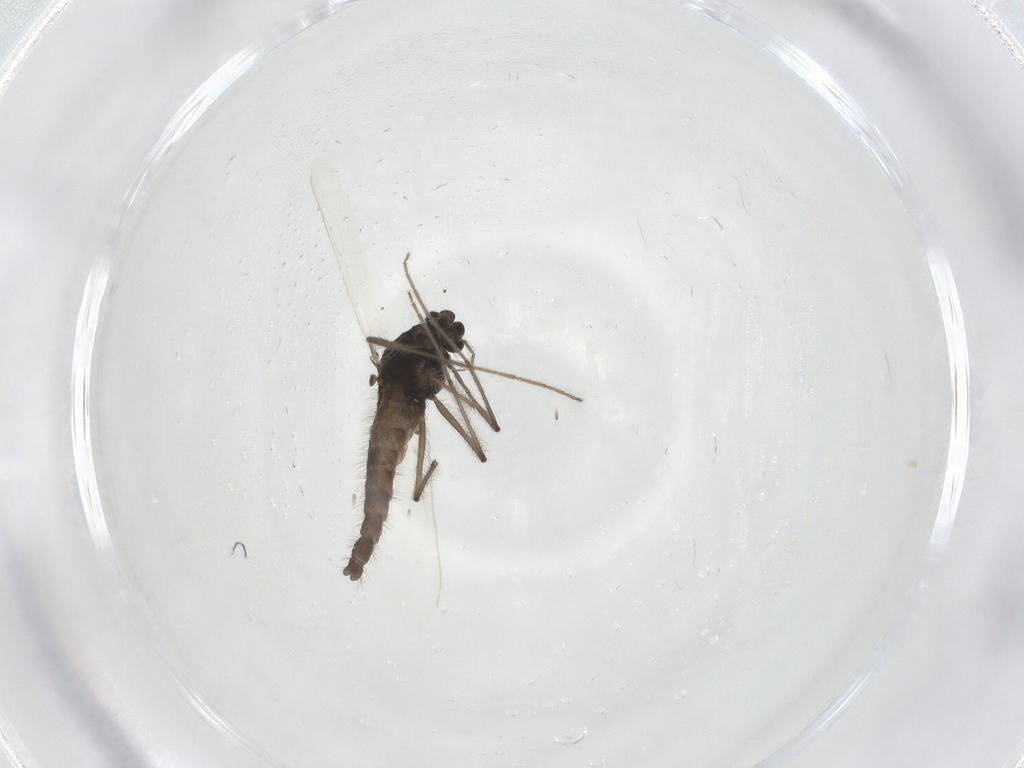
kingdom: Animalia
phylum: Arthropoda
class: Insecta
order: Diptera
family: Chironomidae
